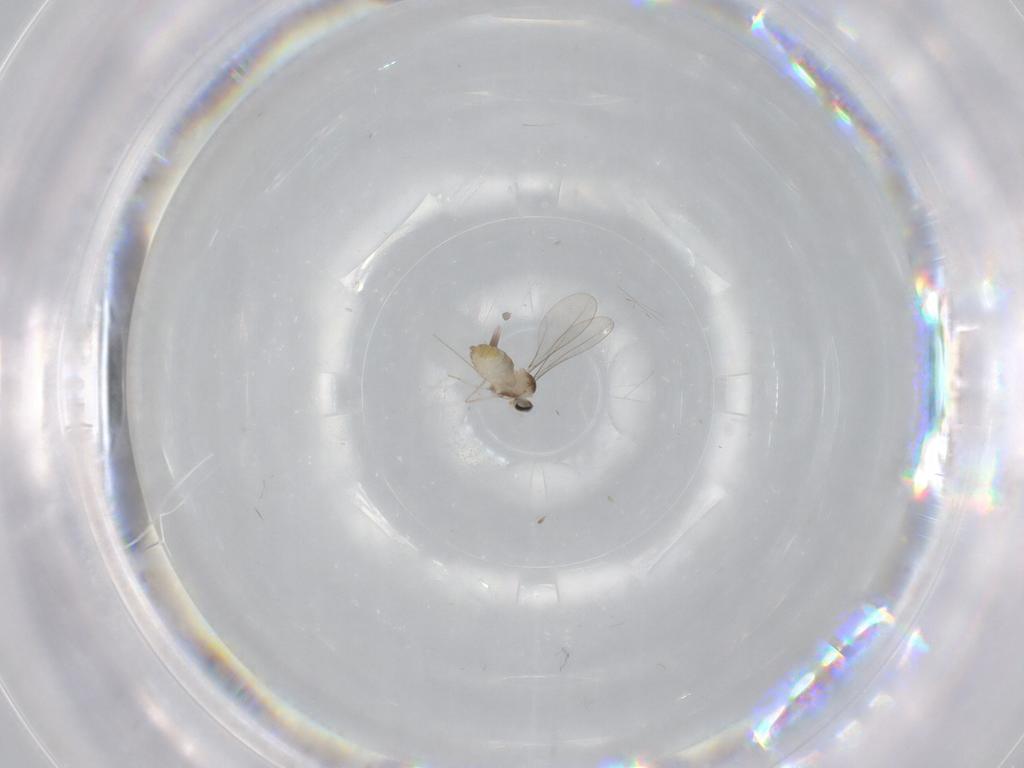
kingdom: Animalia
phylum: Arthropoda
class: Insecta
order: Diptera
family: Cecidomyiidae
